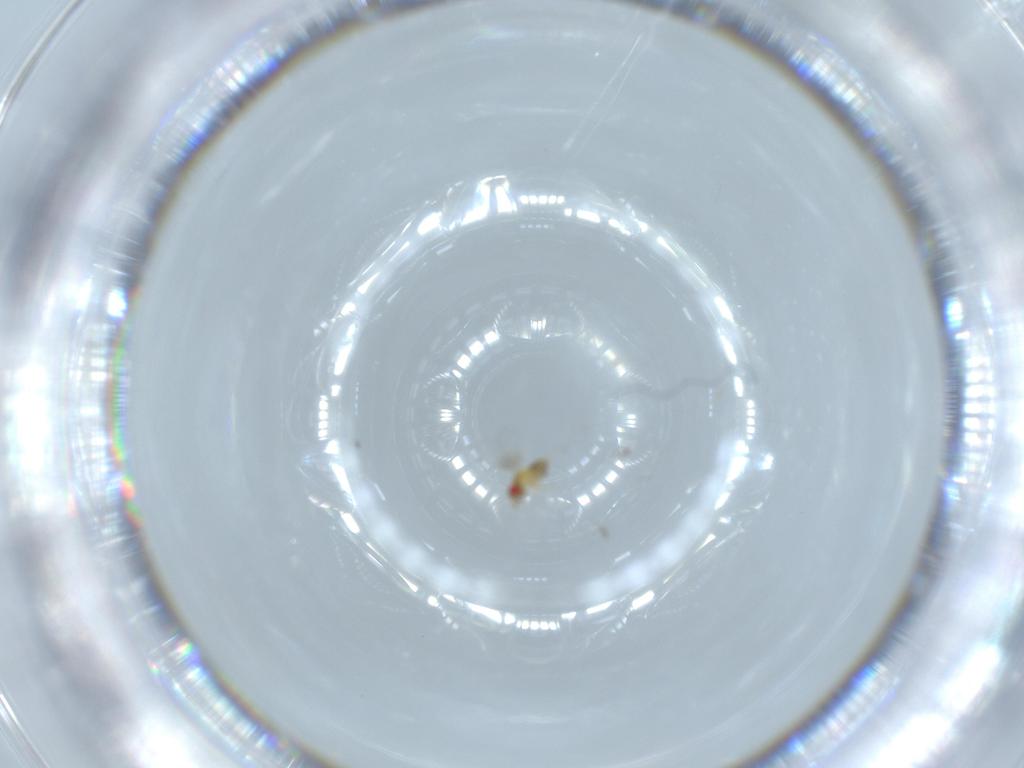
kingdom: Animalia
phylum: Arthropoda
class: Insecta
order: Hymenoptera
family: Trichogrammatidae
